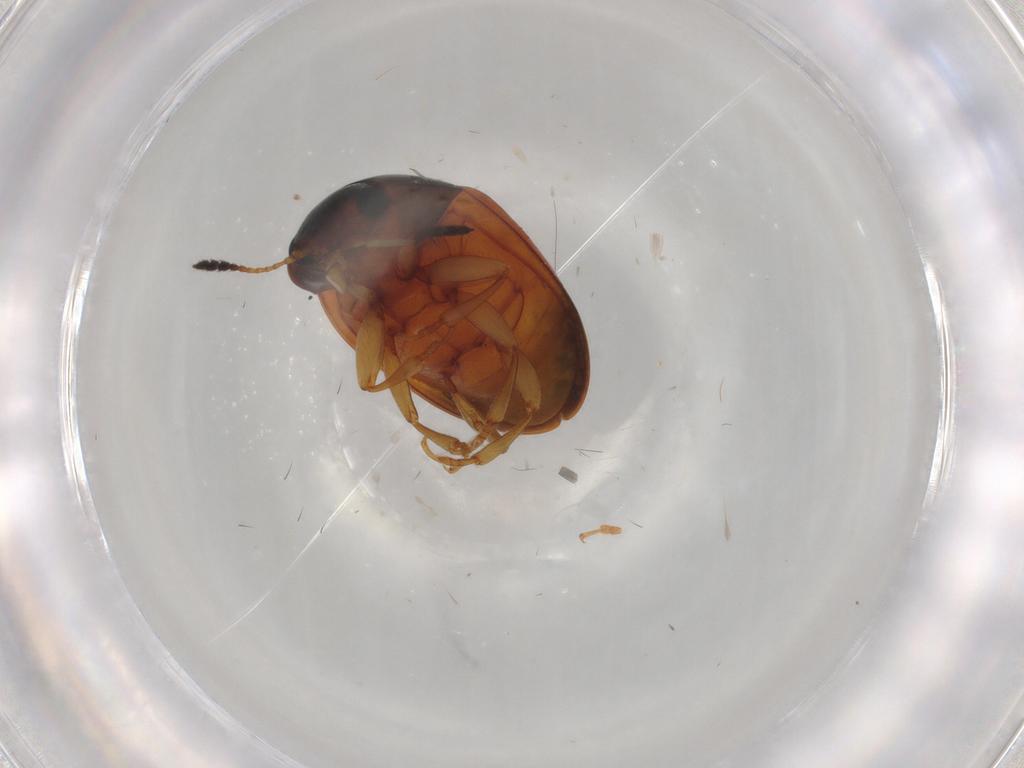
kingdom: Animalia
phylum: Arthropoda
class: Insecta
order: Coleoptera
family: Erotylidae
